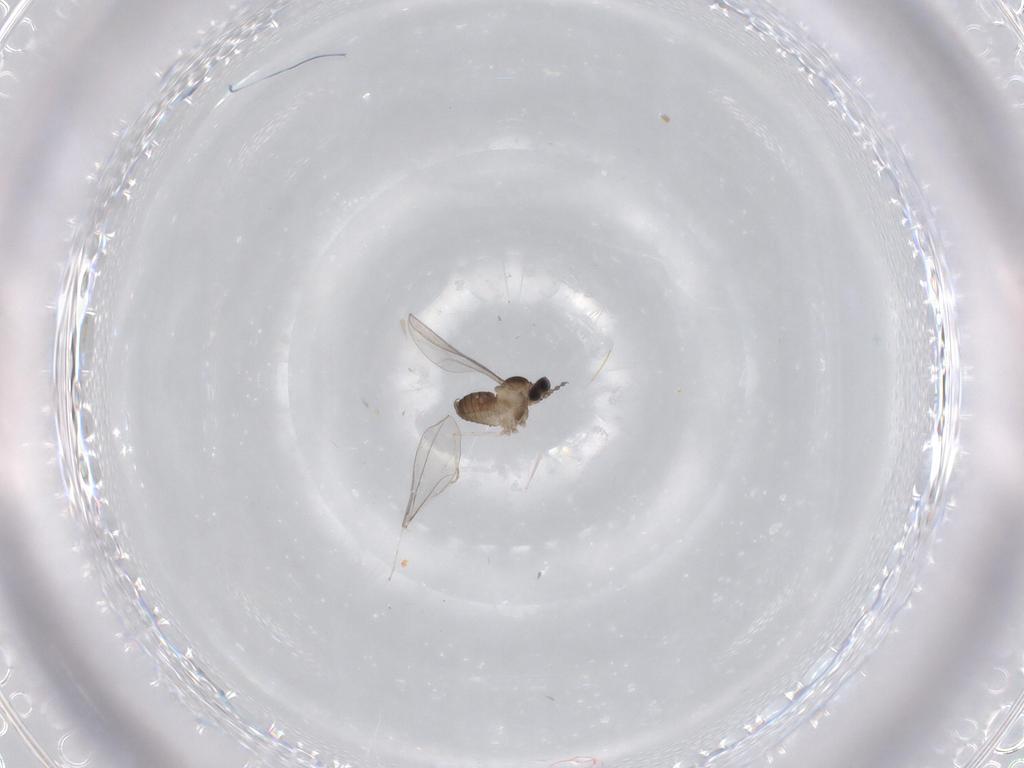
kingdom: Animalia
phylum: Arthropoda
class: Insecta
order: Diptera
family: Cecidomyiidae
